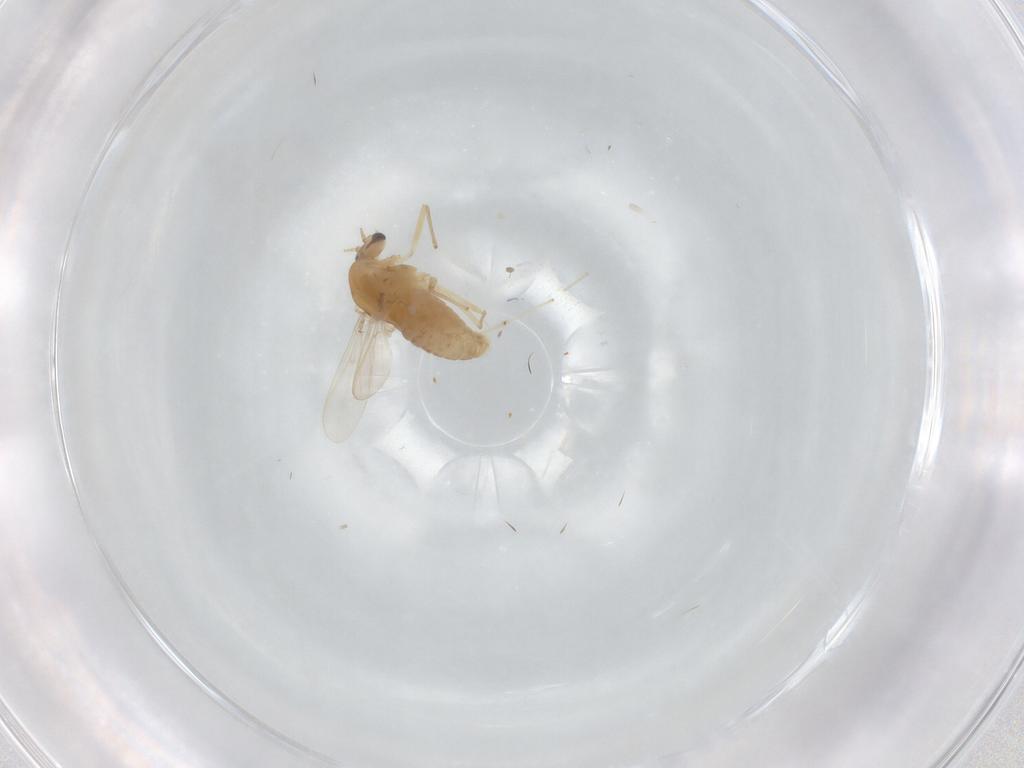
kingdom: Animalia
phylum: Arthropoda
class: Insecta
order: Diptera
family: Chironomidae
